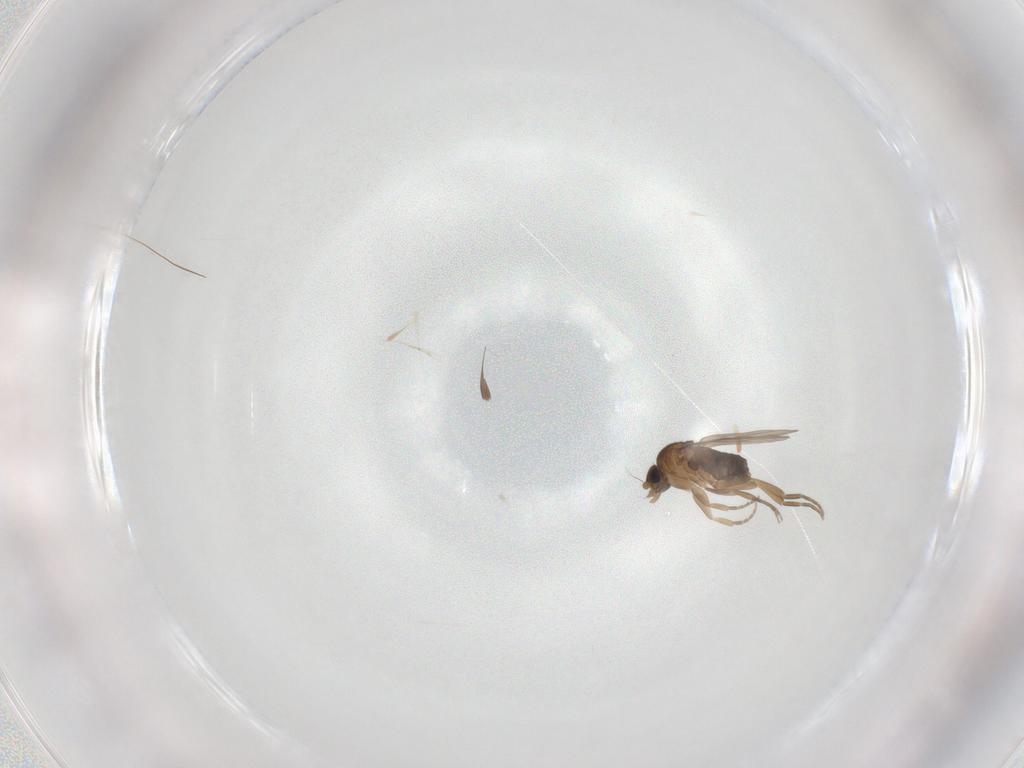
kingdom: Animalia
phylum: Arthropoda
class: Insecta
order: Diptera
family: Phoridae
